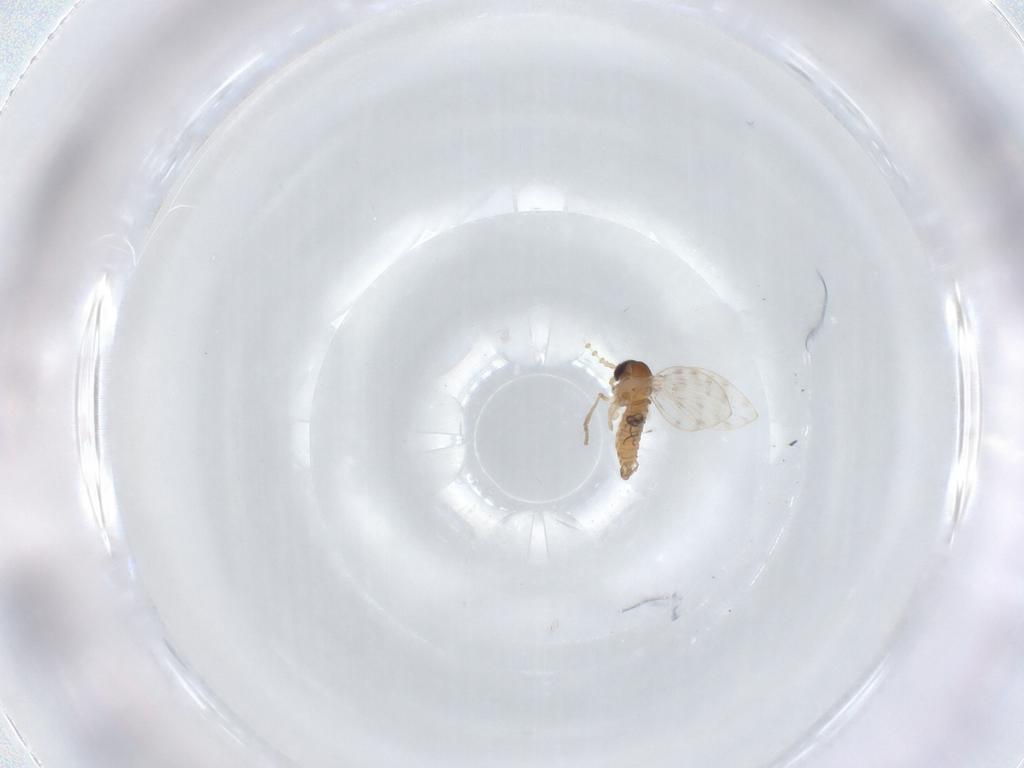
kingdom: Animalia
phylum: Arthropoda
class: Insecta
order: Diptera
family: Psychodidae
